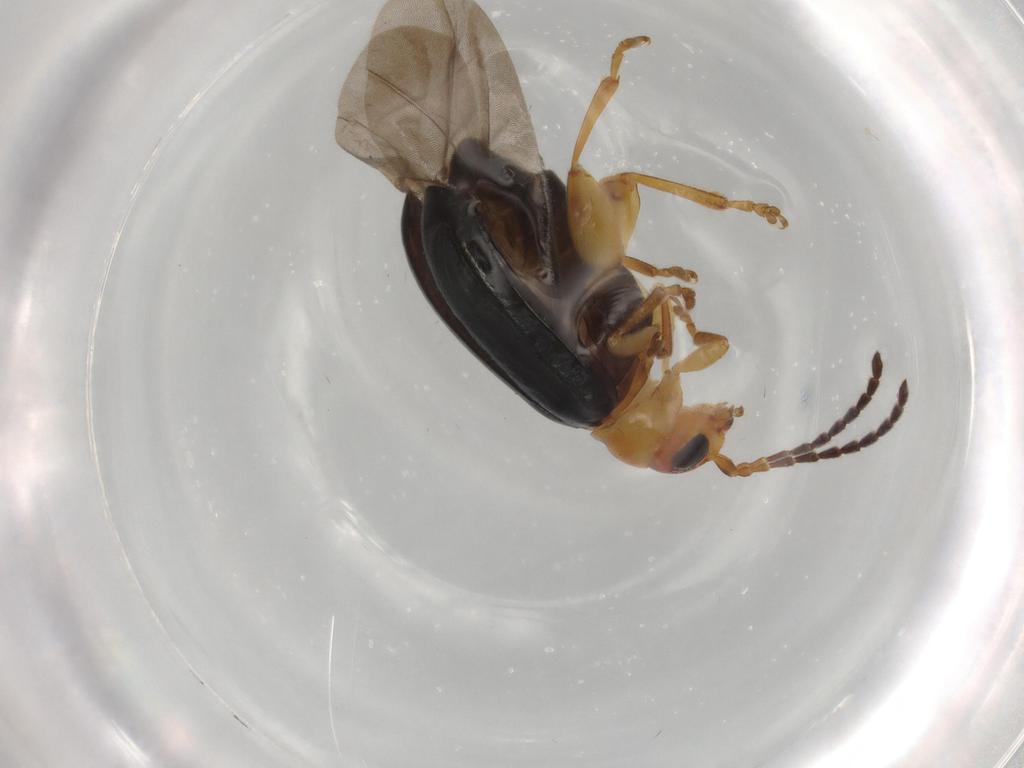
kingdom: Animalia
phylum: Arthropoda
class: Insecta
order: Coleoptera
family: Chrysomelidae
